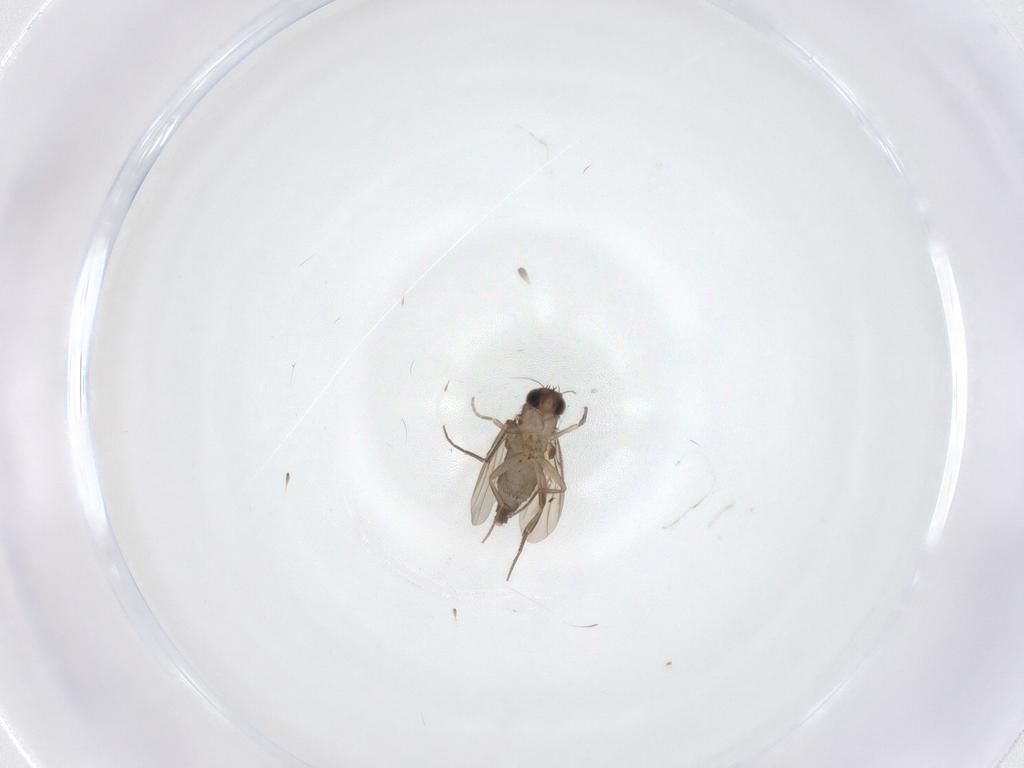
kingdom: Animalia
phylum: Arthropoda
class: Insecta
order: Diptera
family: Phoridae
